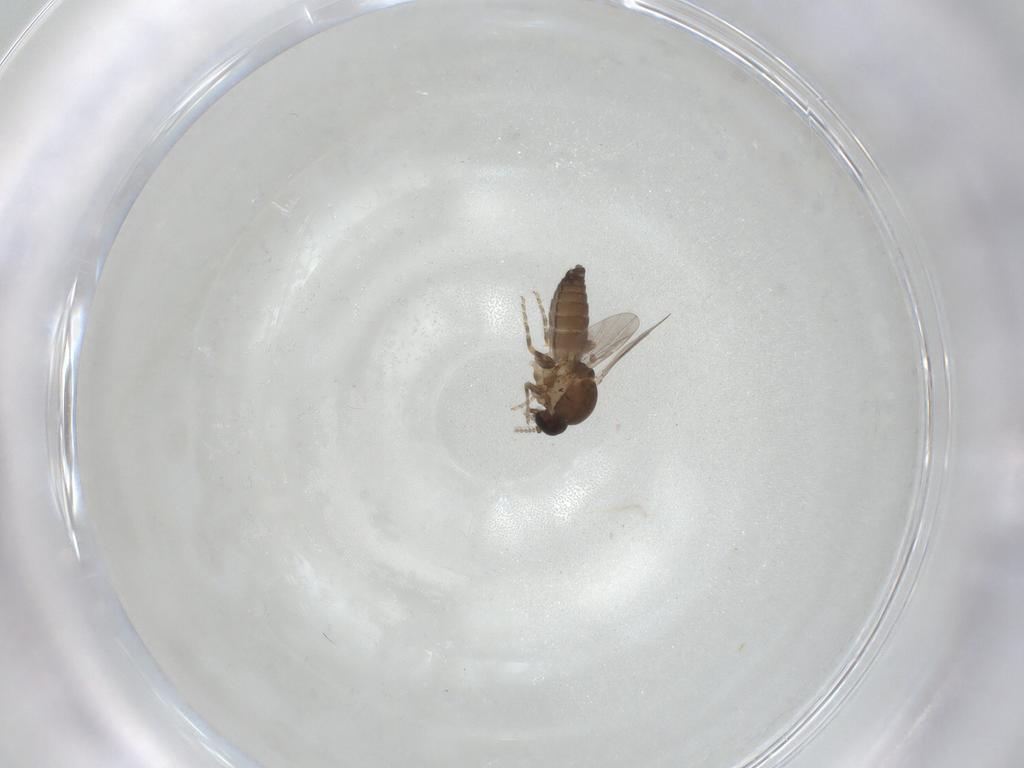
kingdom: Animalia
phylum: Arthropoda
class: Insecta
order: Diptera
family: Ceratopogonidae
